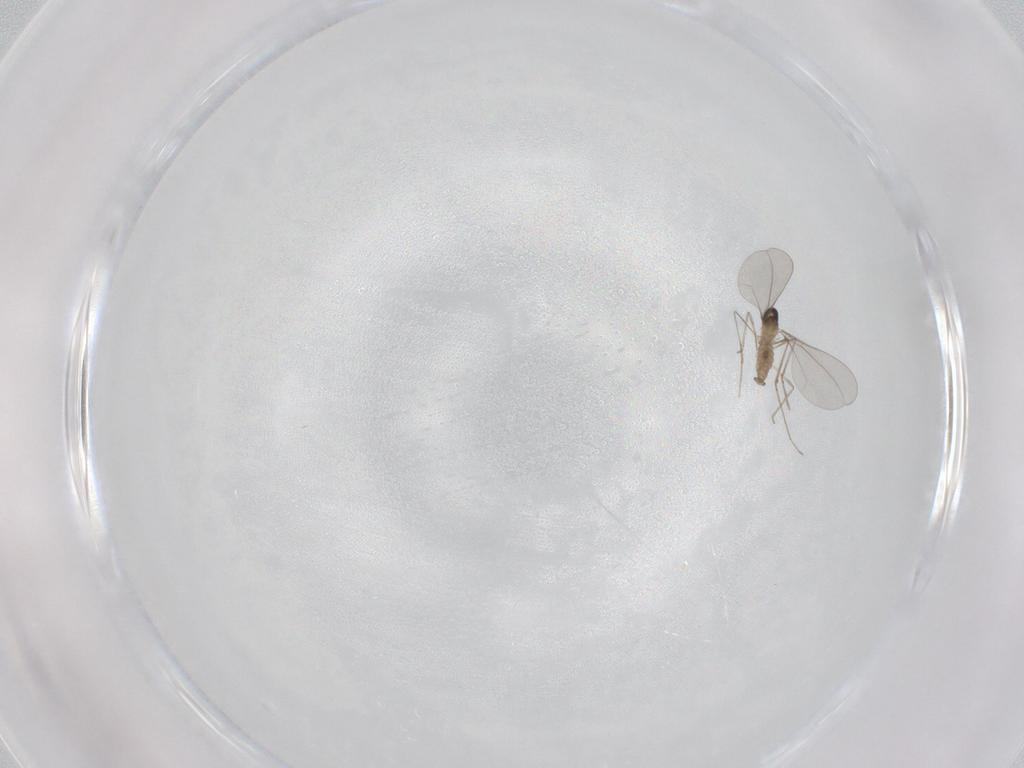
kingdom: Animalia
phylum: Arthropoda
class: Insecta
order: Diptera
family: Cecidomyiidae
